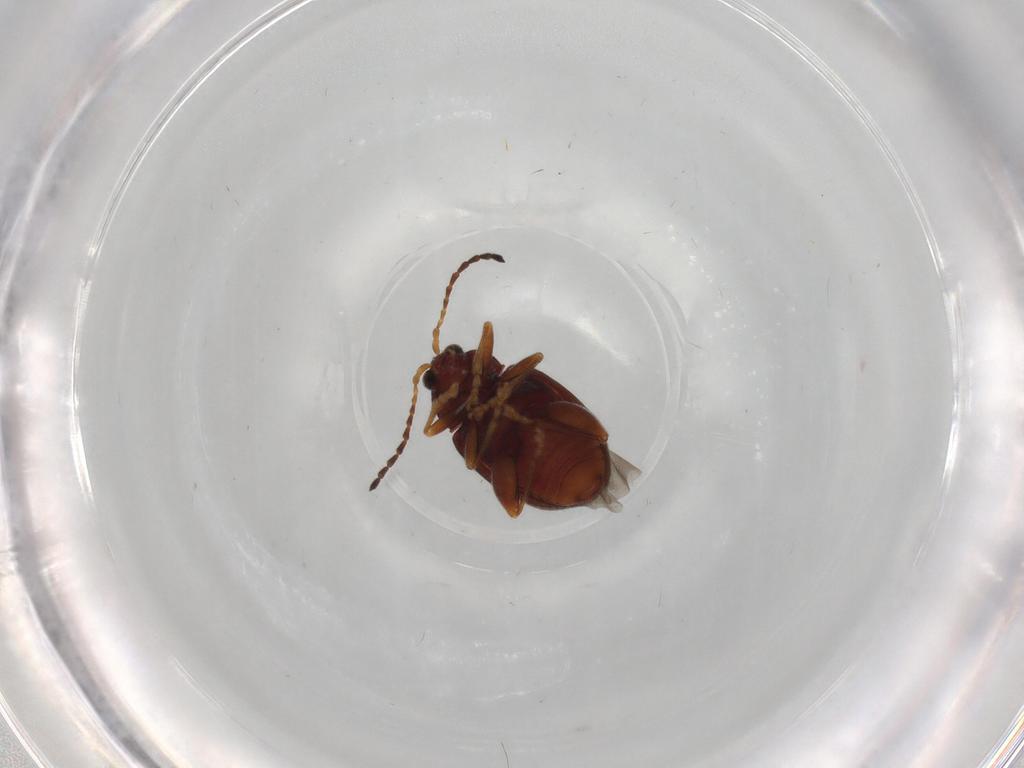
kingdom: Animalia
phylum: Arthropoda
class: Insecta
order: Coleoptera
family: Chrysomelidae
